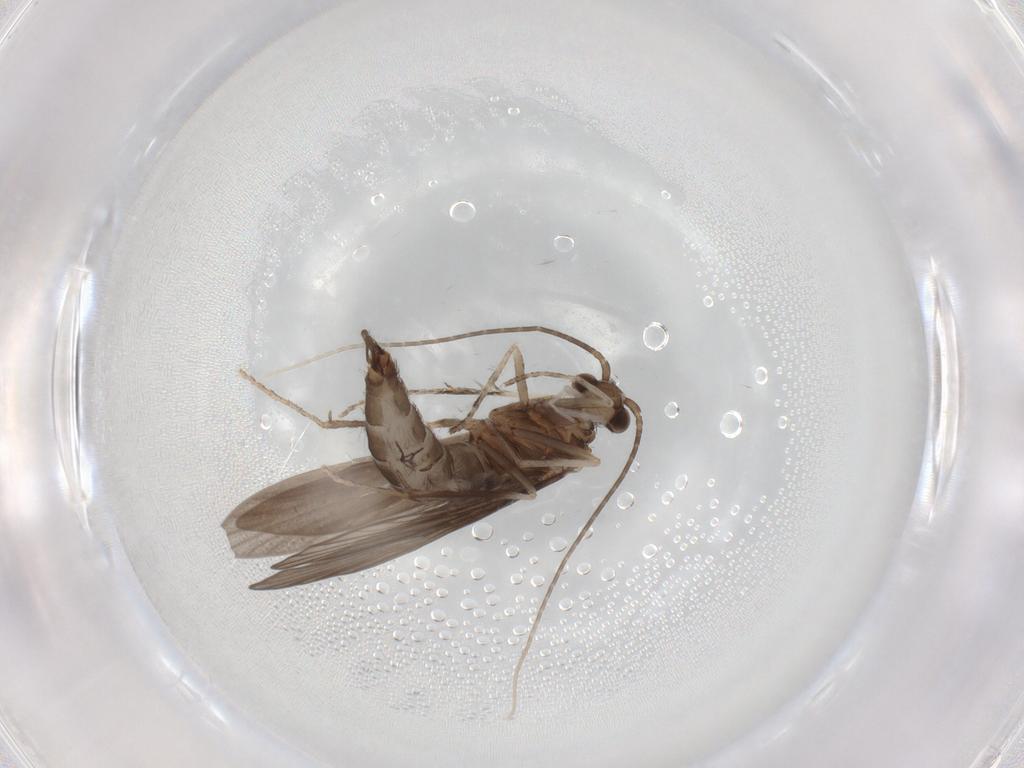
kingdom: Animalia
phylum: Arthropoda
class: Insecta
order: Trichoptera
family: Xiphocentronidae
